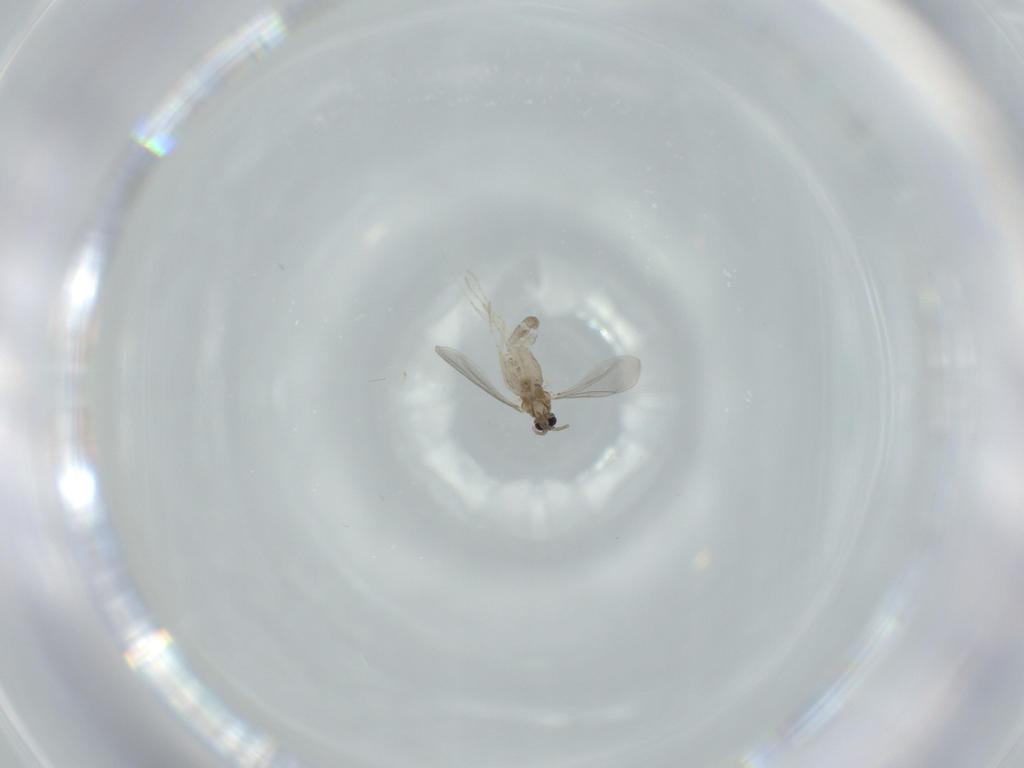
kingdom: Animalia
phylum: Arthropoda
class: Insecta
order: Diptera
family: Cecidomyiidae
